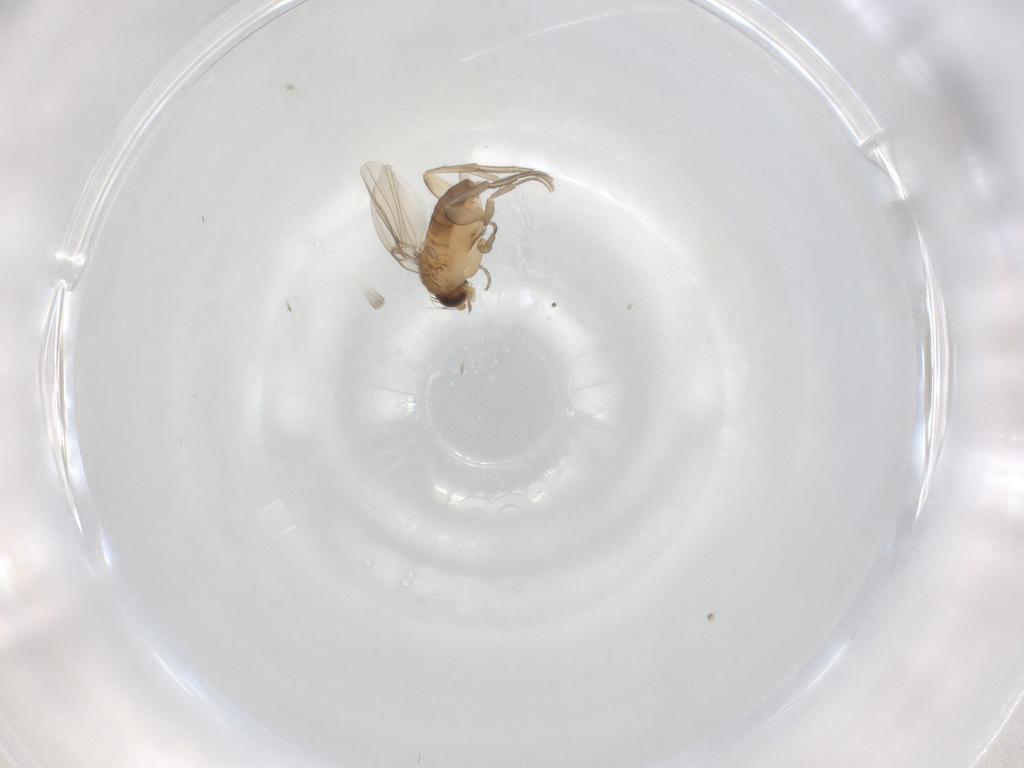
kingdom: Animalia
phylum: Arthropoda
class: Insecta
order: Diptera
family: Phoridae
